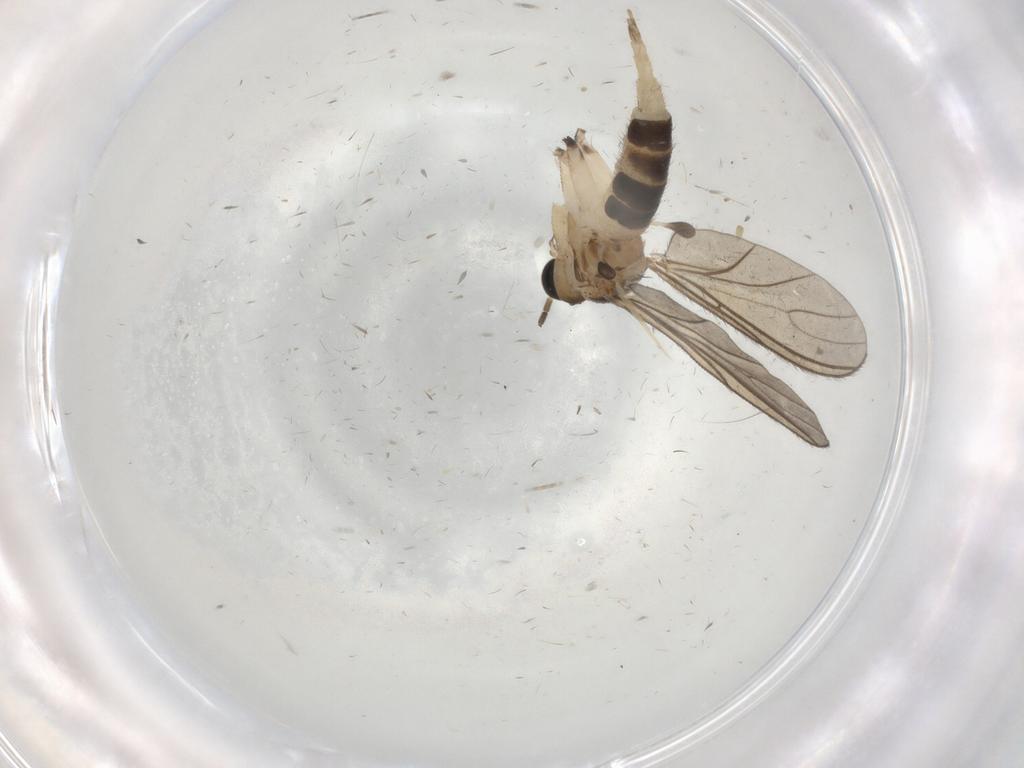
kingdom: Animalia
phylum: Arthropoda
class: Insecta
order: Diptera
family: Sciaridae
